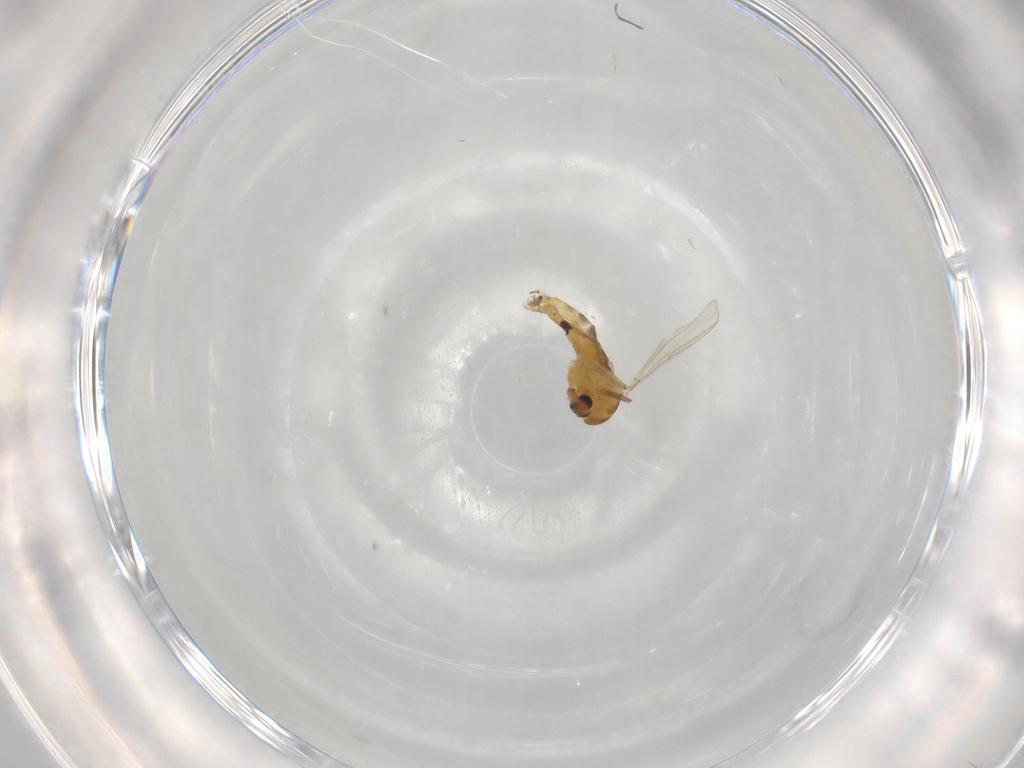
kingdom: Animalia
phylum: Arthropoda
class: Insecta
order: Diptera
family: Chironomidae
